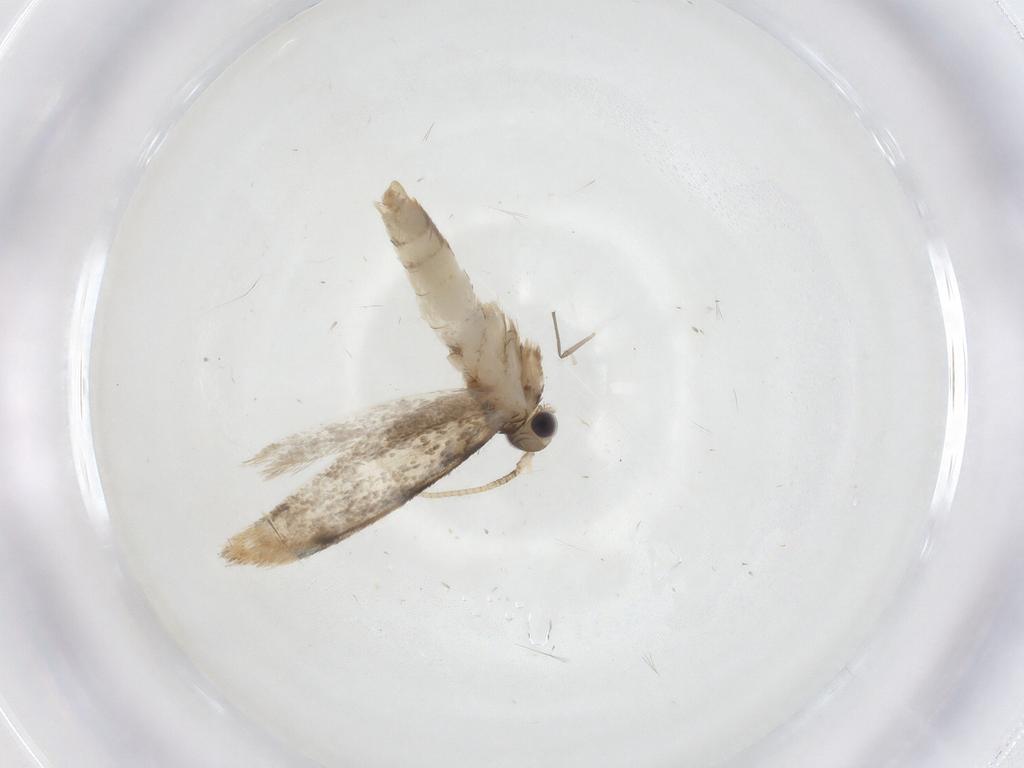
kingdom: Animalia
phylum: Arthropoda
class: Insecta
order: Lepidoptera
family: Dryadaulidae
